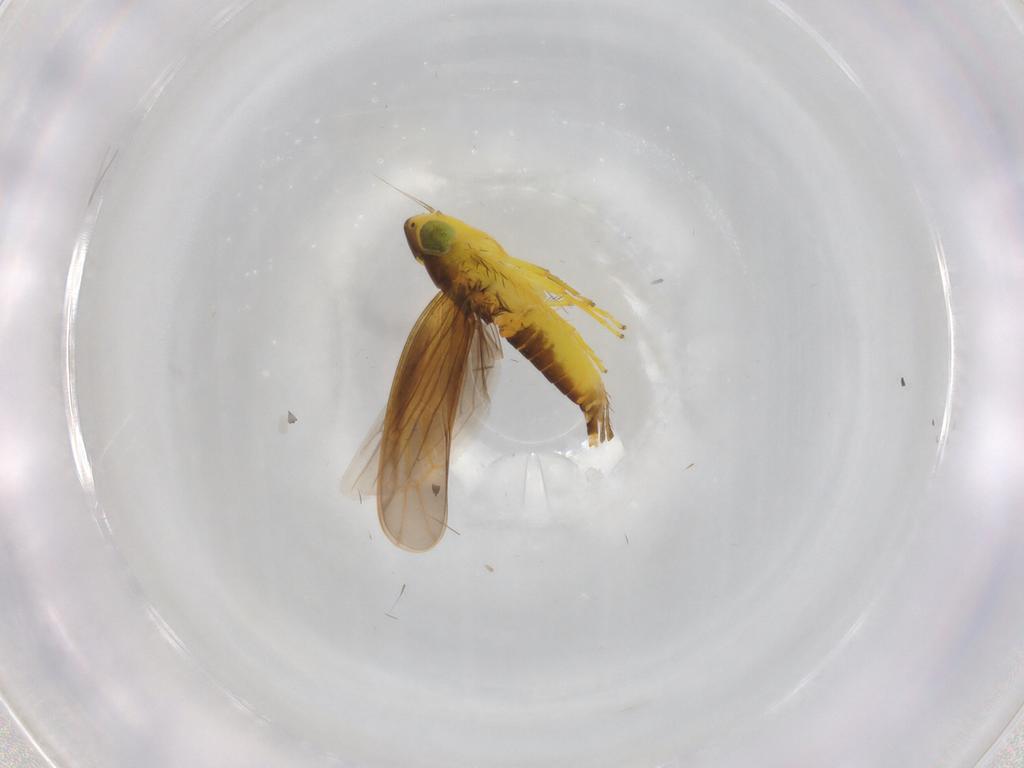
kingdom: Animalia
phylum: Arthropoda
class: Insecta
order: Hemiptera
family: Cicadellidae
